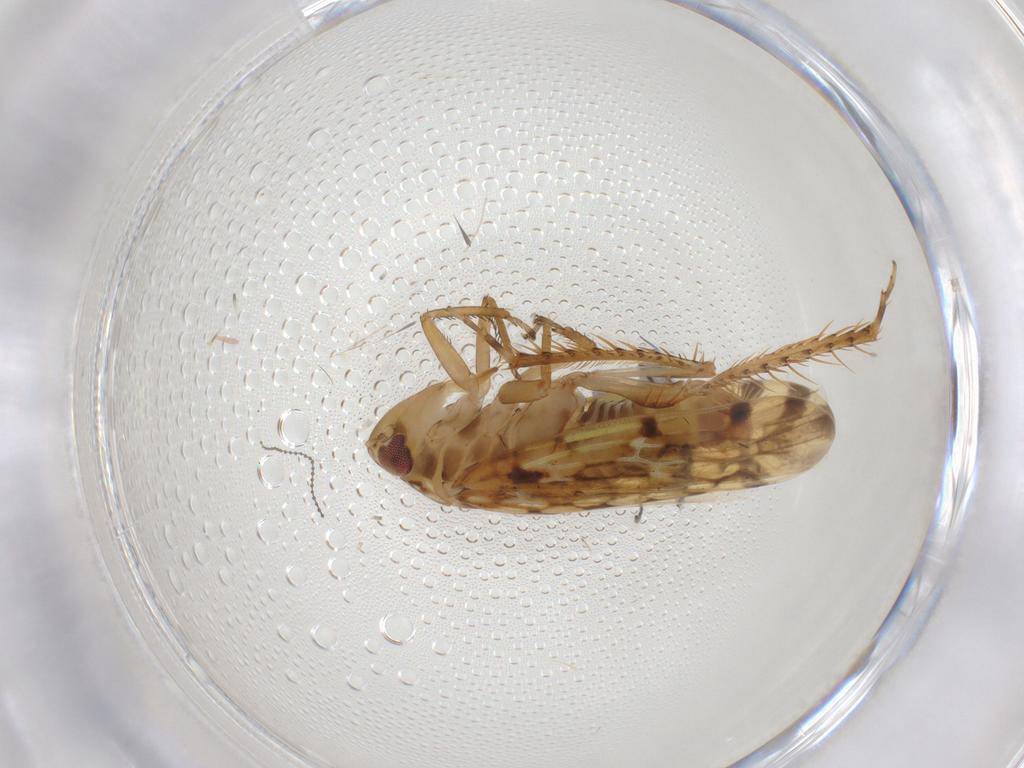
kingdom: Animalia
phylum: Arthropoda
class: Insecta
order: Hemiptera
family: Cicadellidae
